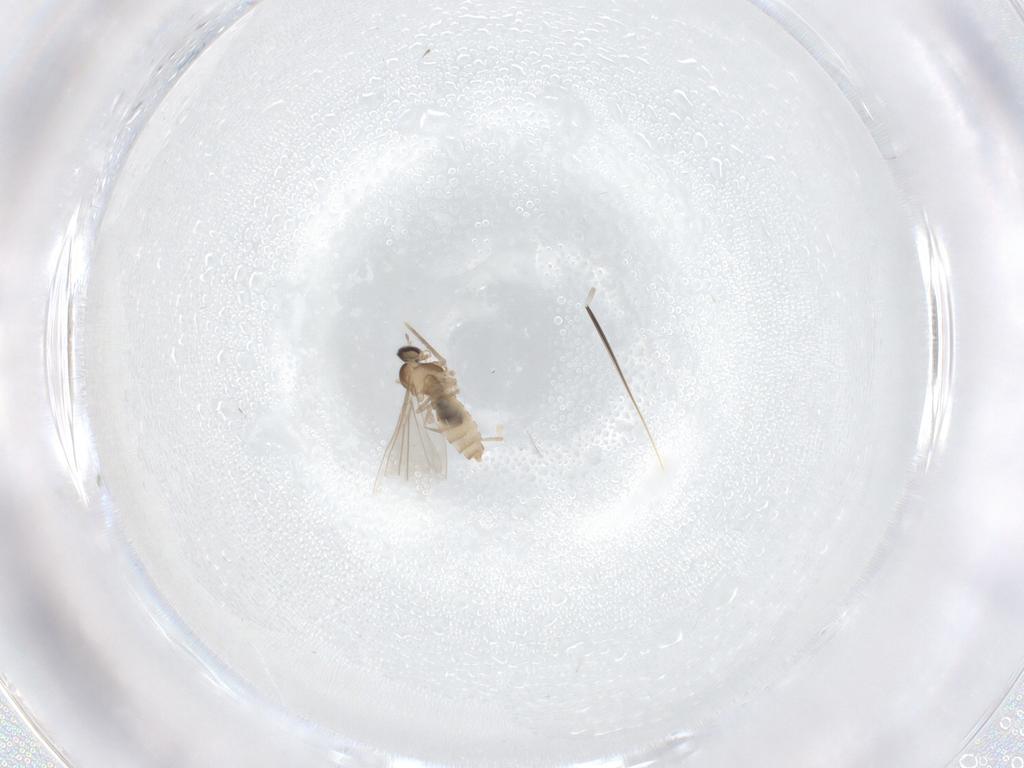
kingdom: Animalia
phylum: Arthropoda
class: Insecta
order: Diptera
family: Cecidomyiidae
